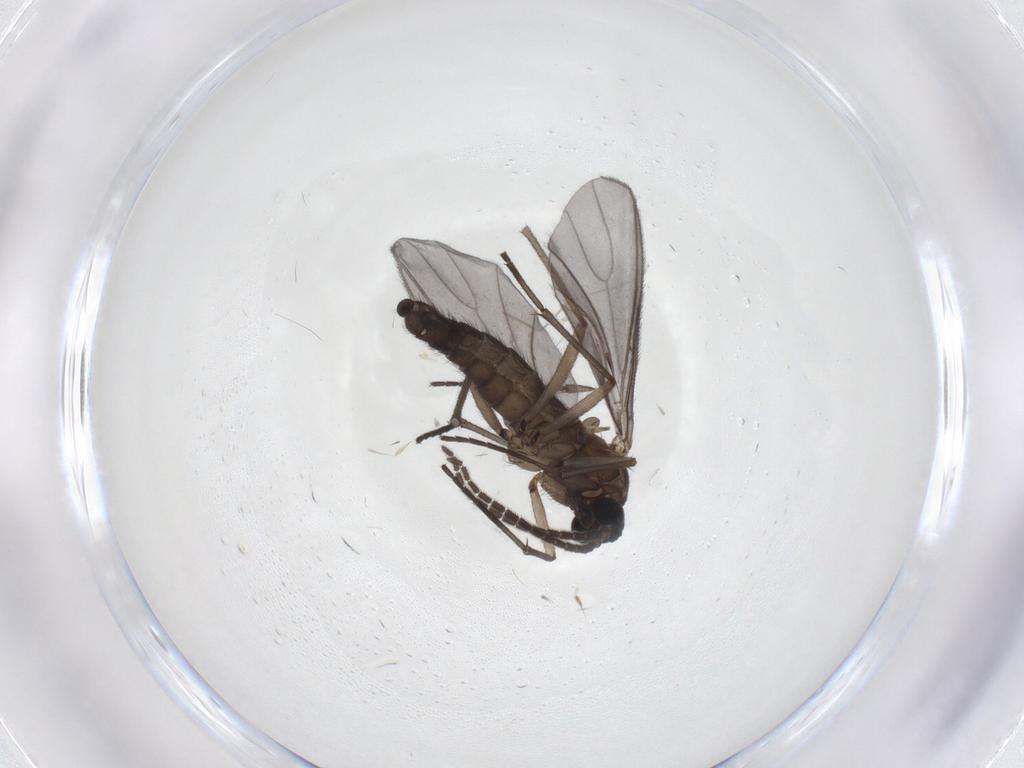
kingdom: Animalia
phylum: Arthropoda
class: Insecta
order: Diptera
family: Sciaridae
